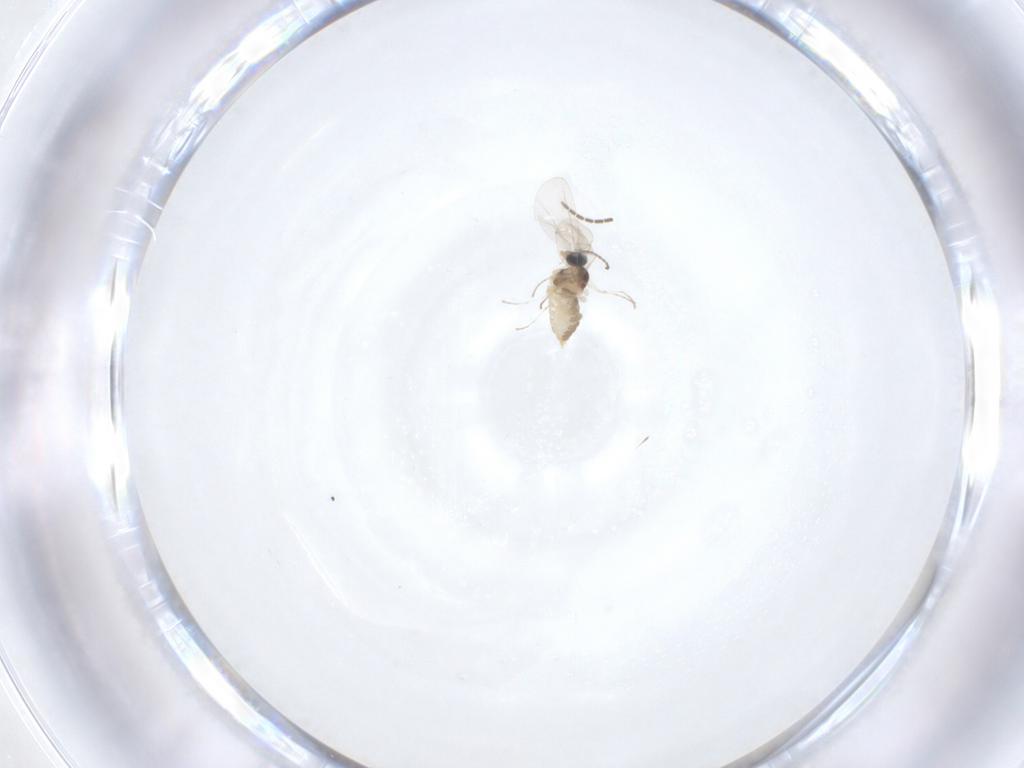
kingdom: Animalia
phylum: Arthropoda
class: Insecta
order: Diptera
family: Cecidomyiidae
